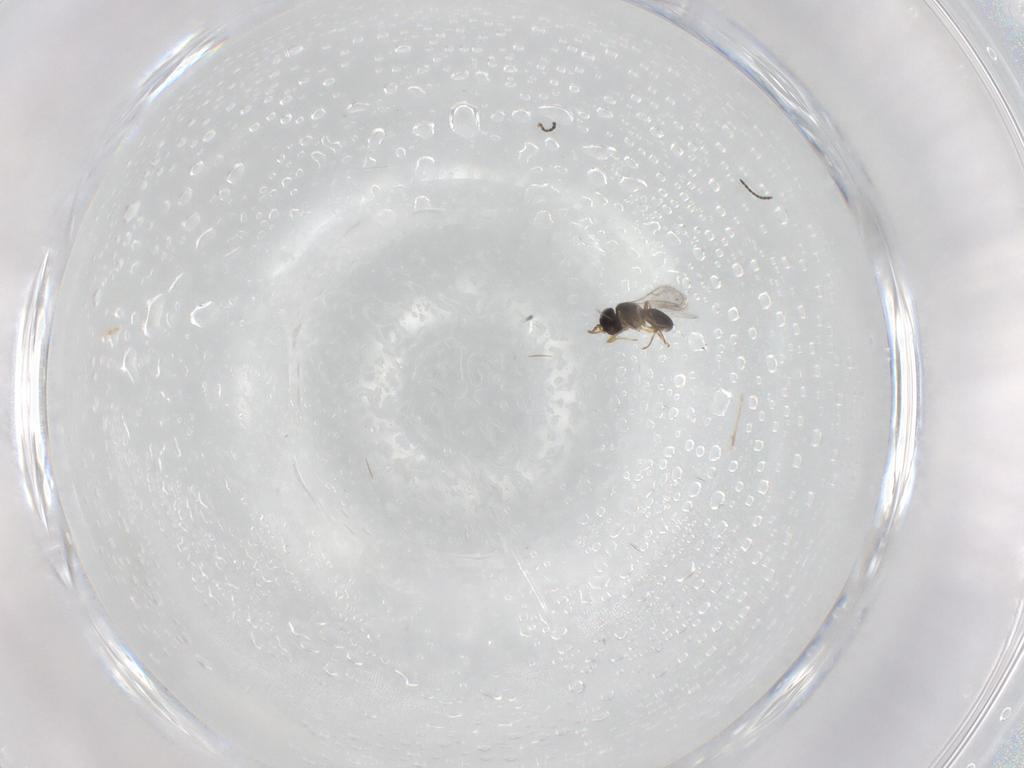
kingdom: Animalia
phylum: Arthropoda
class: Insecta
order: Hymenoptera
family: Scelionidae
